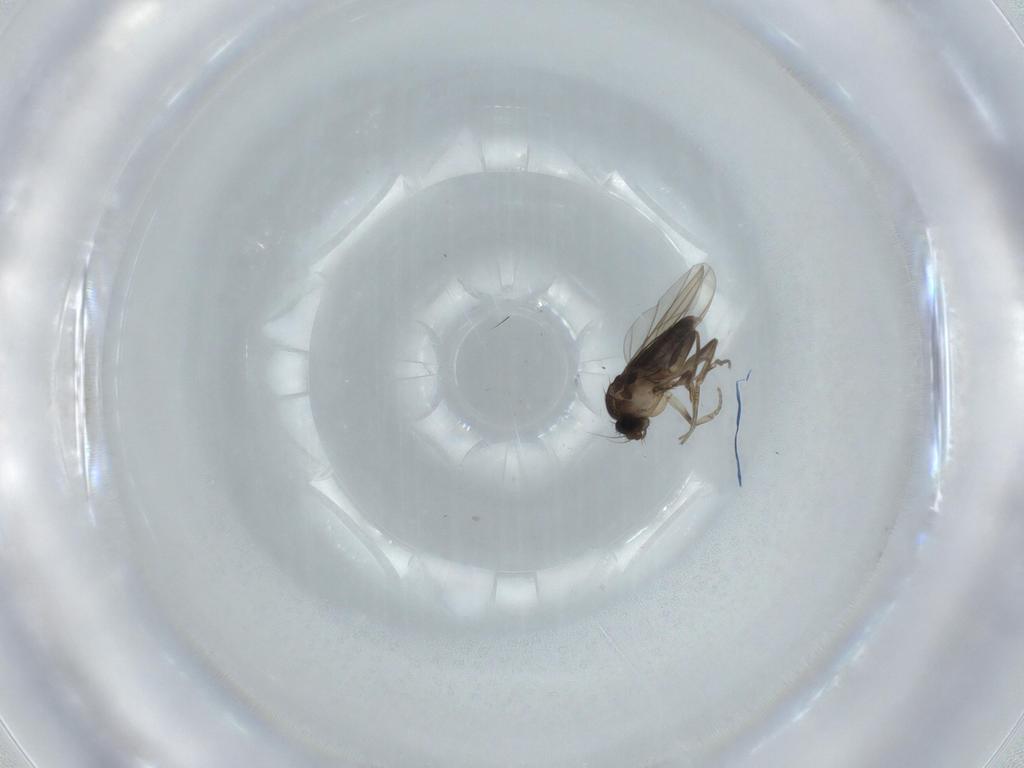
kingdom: Animalia
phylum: Arthropoda
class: Insecta
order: Diptera
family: Phoridae
